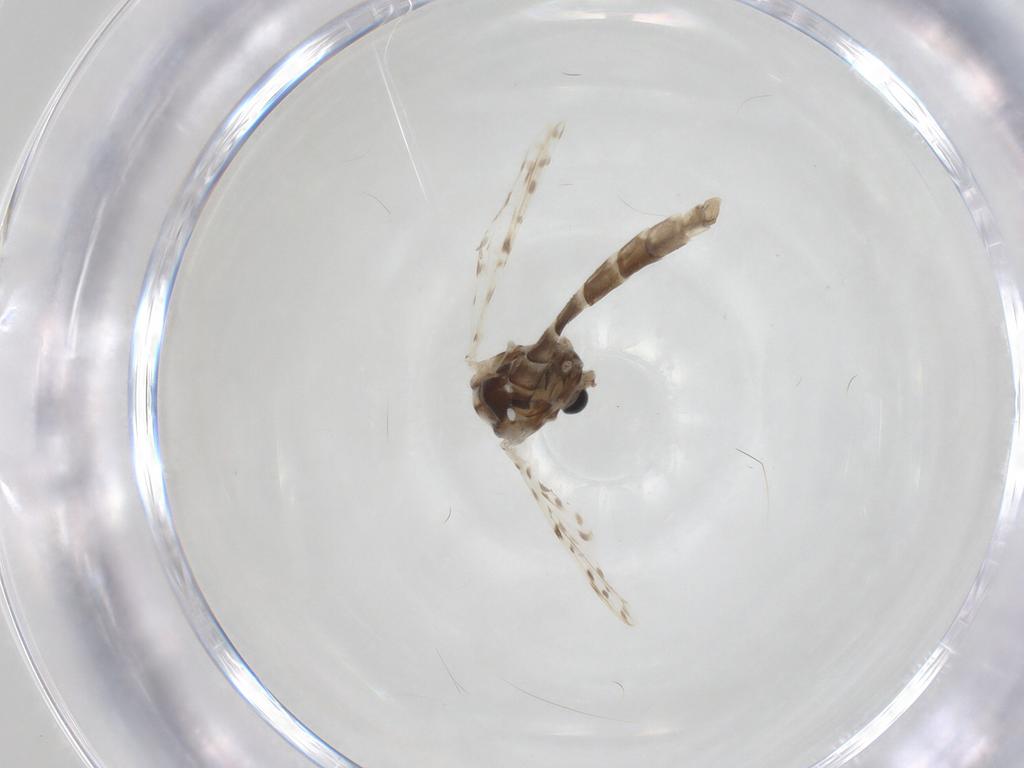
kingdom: Animalia
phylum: Arthropoda
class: Insecta
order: Diptera
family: Chironomidae
